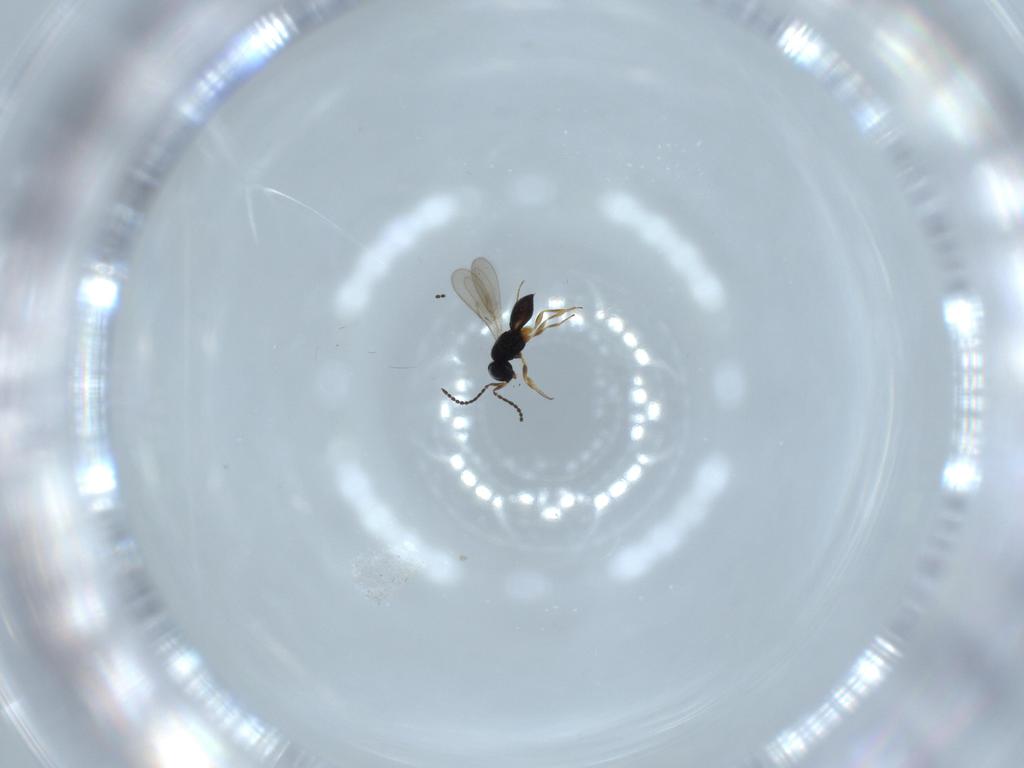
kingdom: Animalia
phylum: Arthropoda
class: Insecta
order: Hymenoptera
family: Scelionidae
